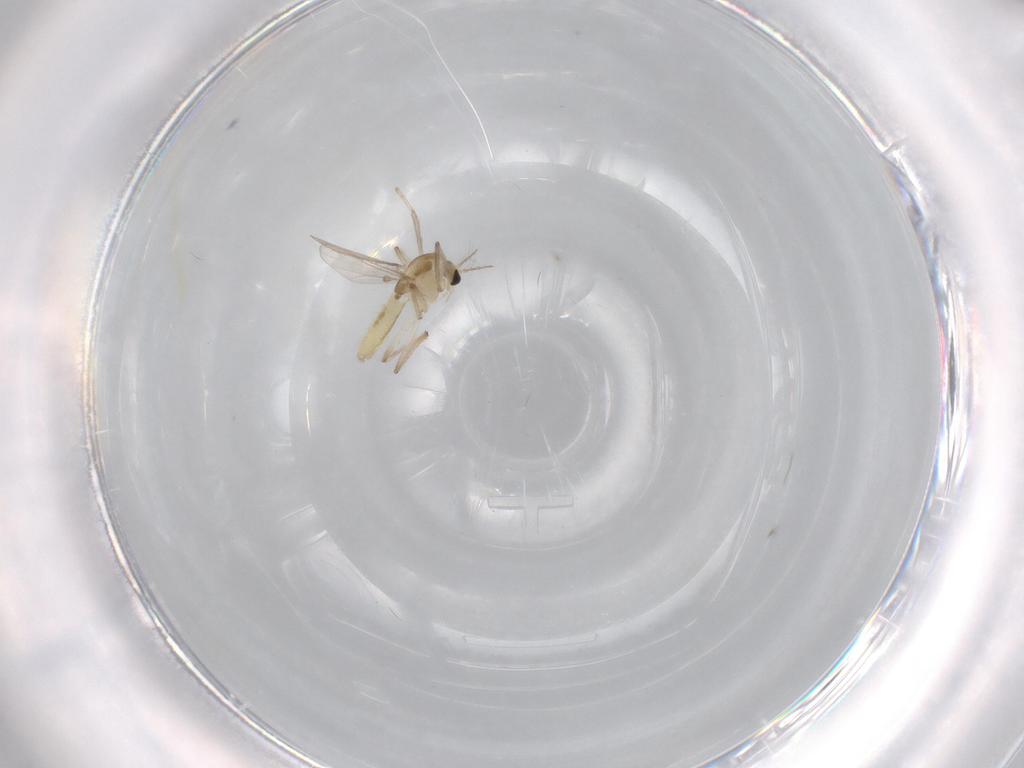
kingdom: Animalia
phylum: Arthropoda
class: Insecta
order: Diptera
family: Chironomidae
